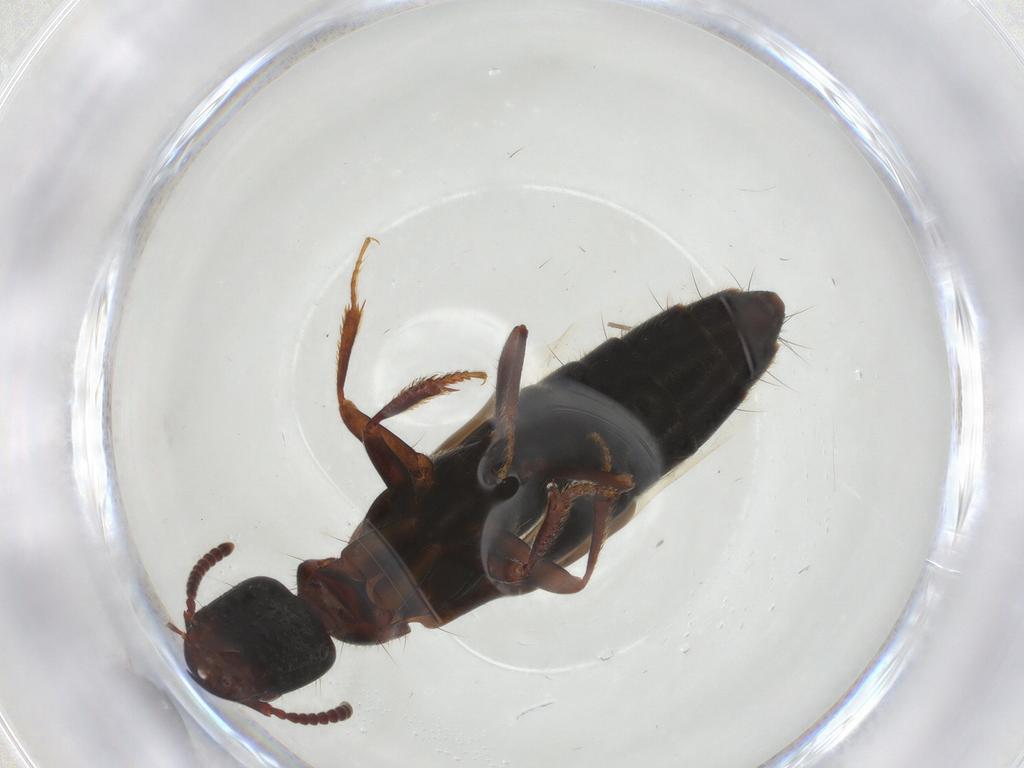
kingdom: Animalia
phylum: Arthropoda
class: Insecta
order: Coleoptera
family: Staphylinidae
